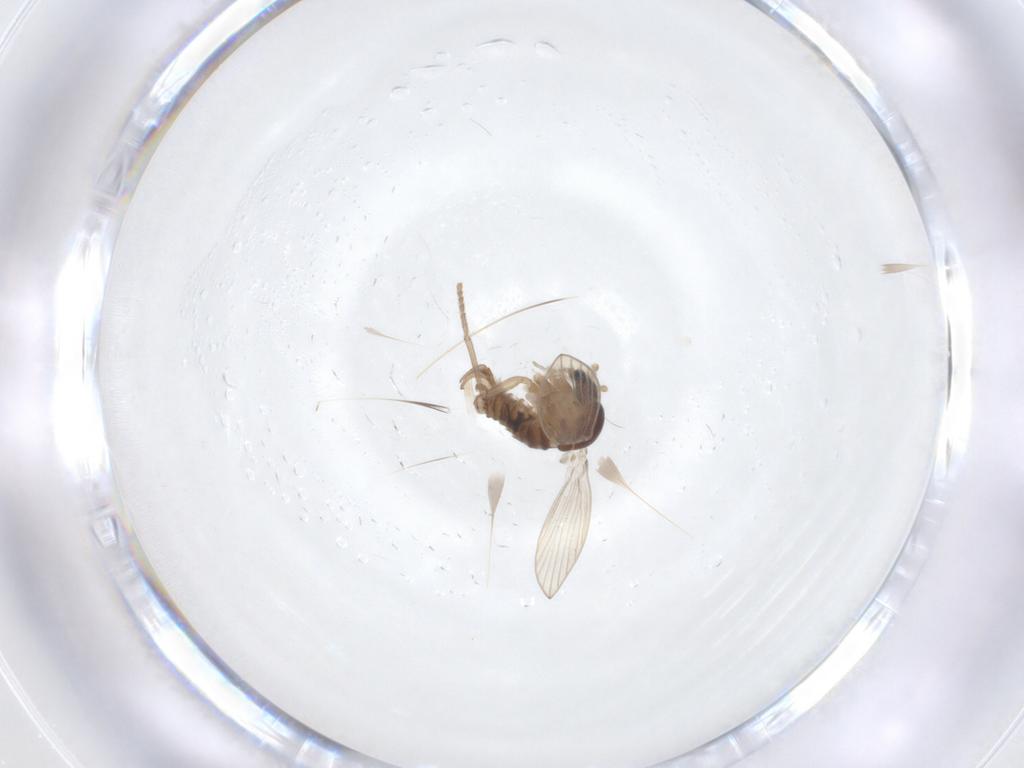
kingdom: Animalia
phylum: Arthropoda
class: Insecta
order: Diptera
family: Psychodidae
